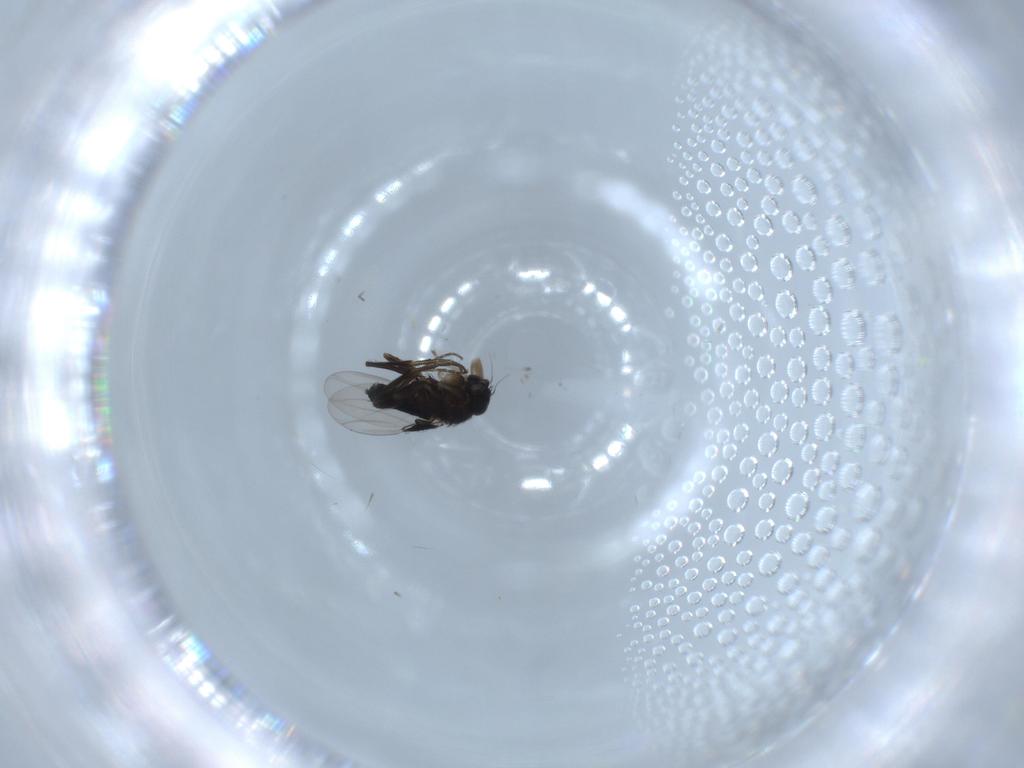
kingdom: Animalia
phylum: Arthropoda
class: Insecta
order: Diptera
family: Phoridae
